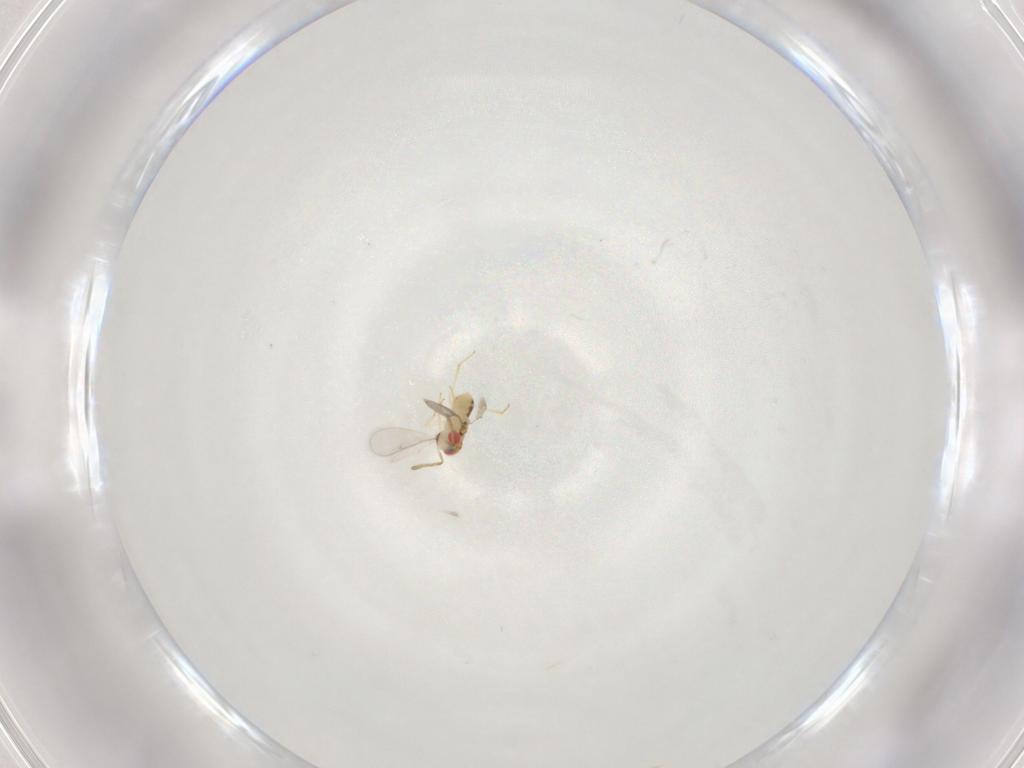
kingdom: Animalia
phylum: Arthropoda
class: Insecta
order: Hymenoptera
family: Aphelinidae
